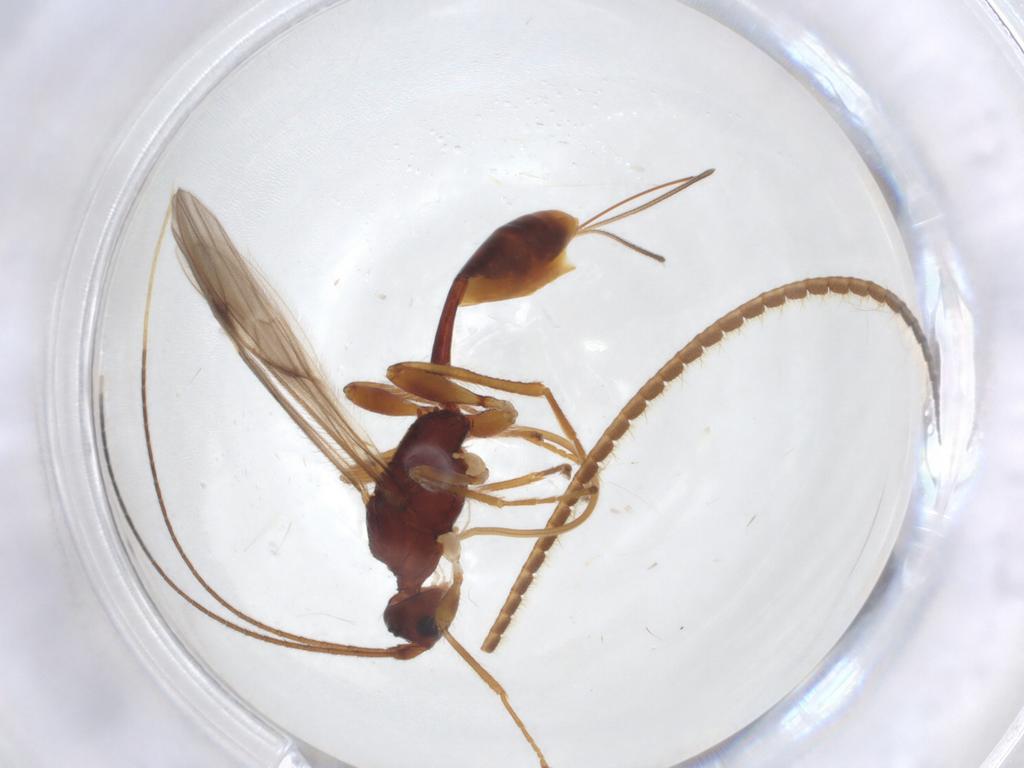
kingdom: Animalia
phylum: Arthropoda
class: Insecta
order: Hymenoptera
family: Braconidae
